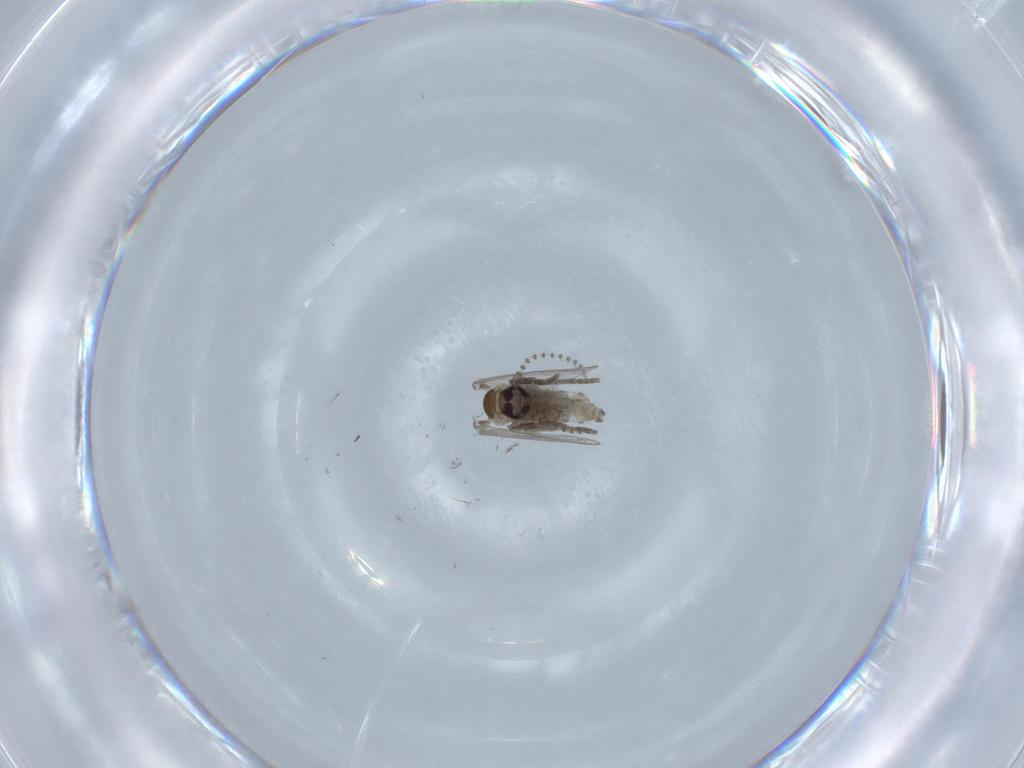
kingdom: Animalia
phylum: Arthropoda
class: Insecta
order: Diptera
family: Psychodidae
